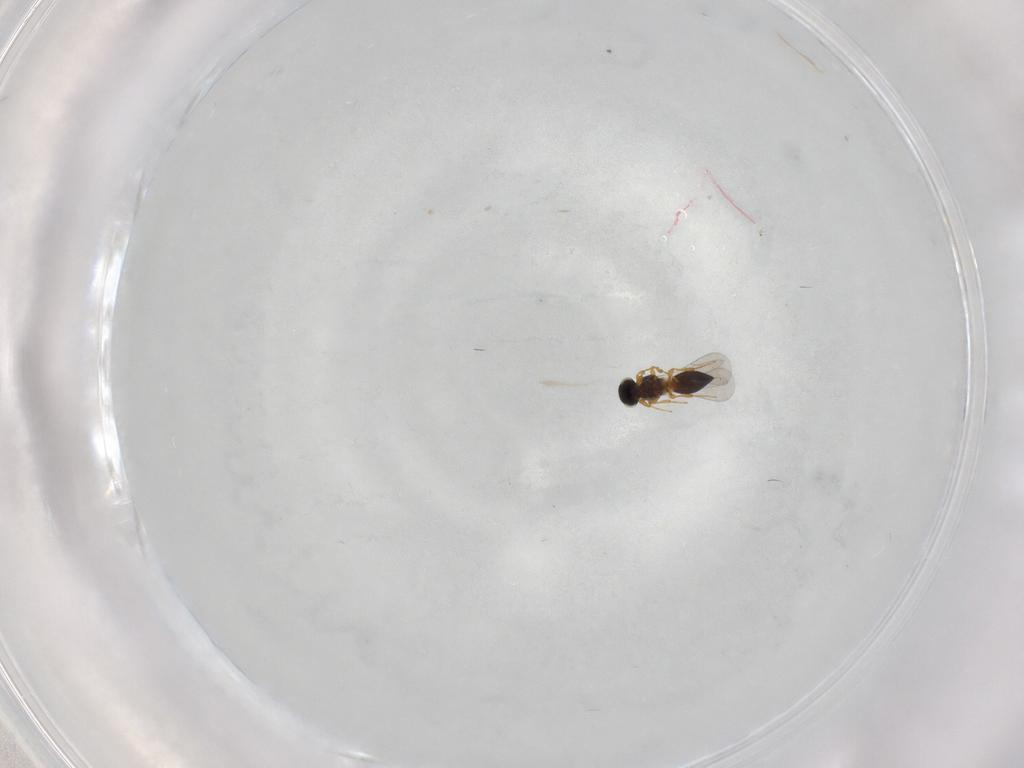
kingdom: Animalia
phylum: Arthropoda
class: Insecta
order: Hymenoptera
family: Platygastridae
